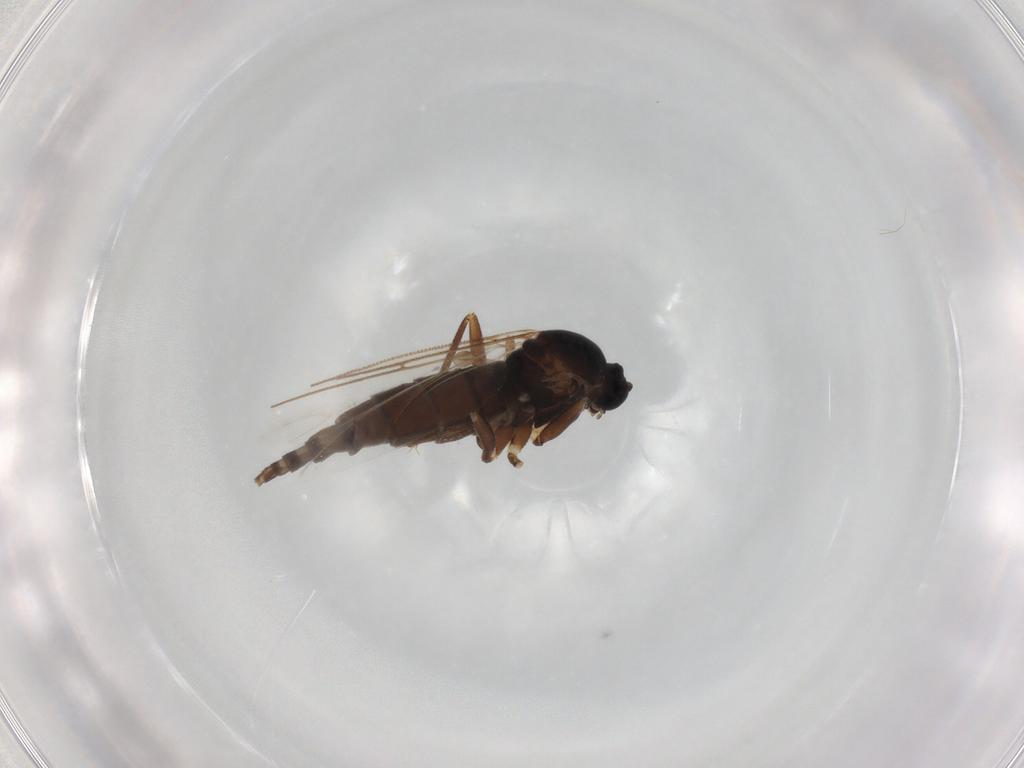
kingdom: Animalia
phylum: Arthropoda
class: Insecta
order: Diptera
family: Sciaridae
